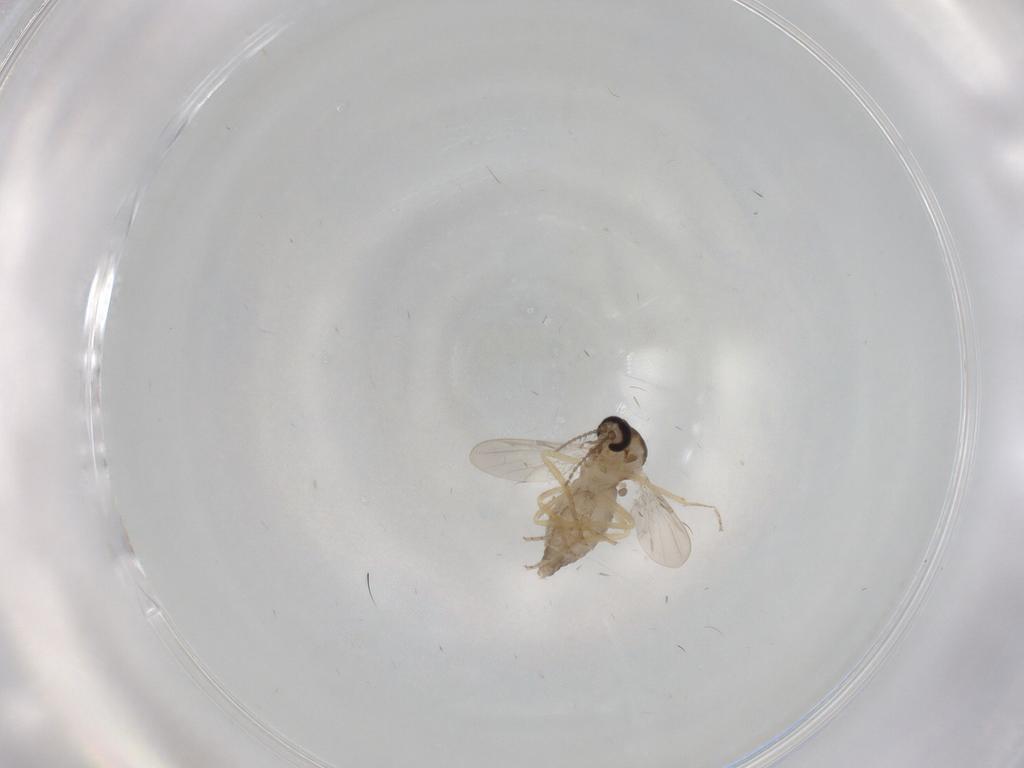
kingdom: Animalia
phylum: Arthropoda
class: Insecta
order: Diptera
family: Ceratopogonidae
